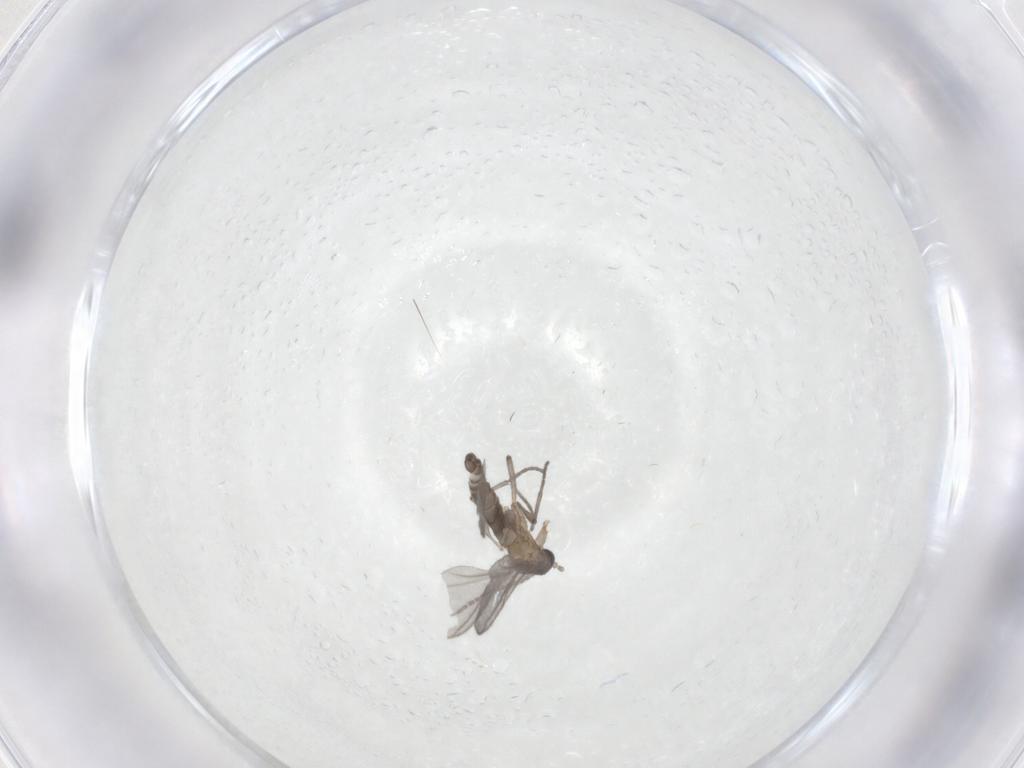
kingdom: Animalia
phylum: Arthropoda
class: Insecta
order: Diptera
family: Sciaridae
